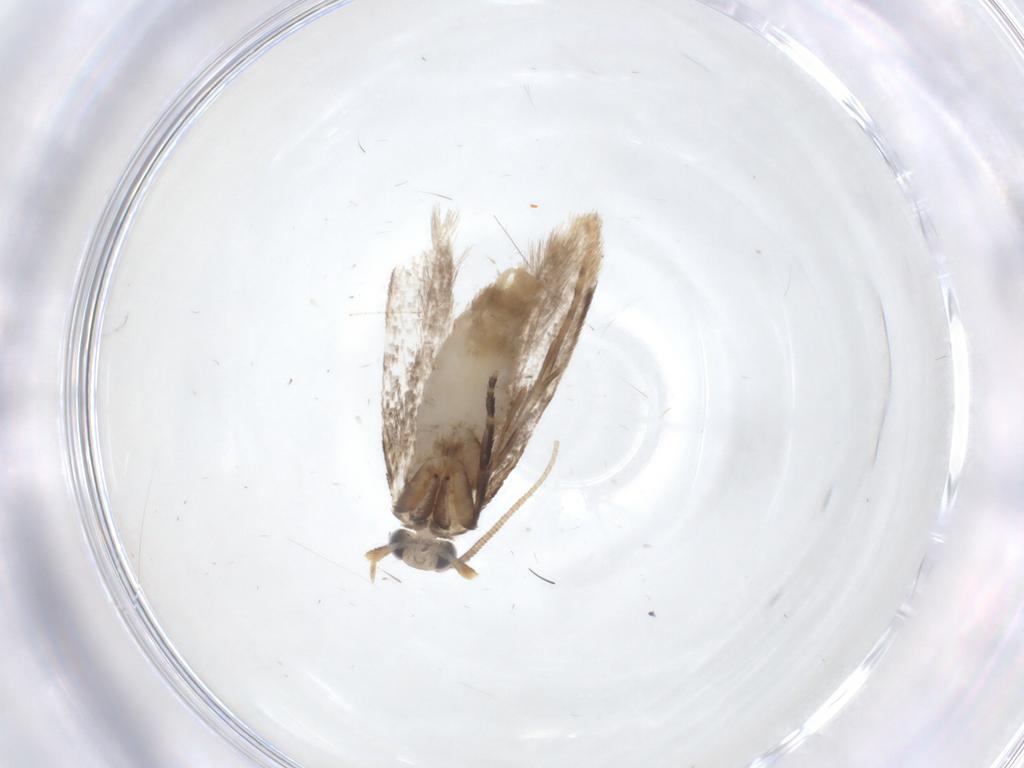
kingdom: Animalia
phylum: Arthropoda
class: Insecta
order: Lepidoptera
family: Dryadaulidae
